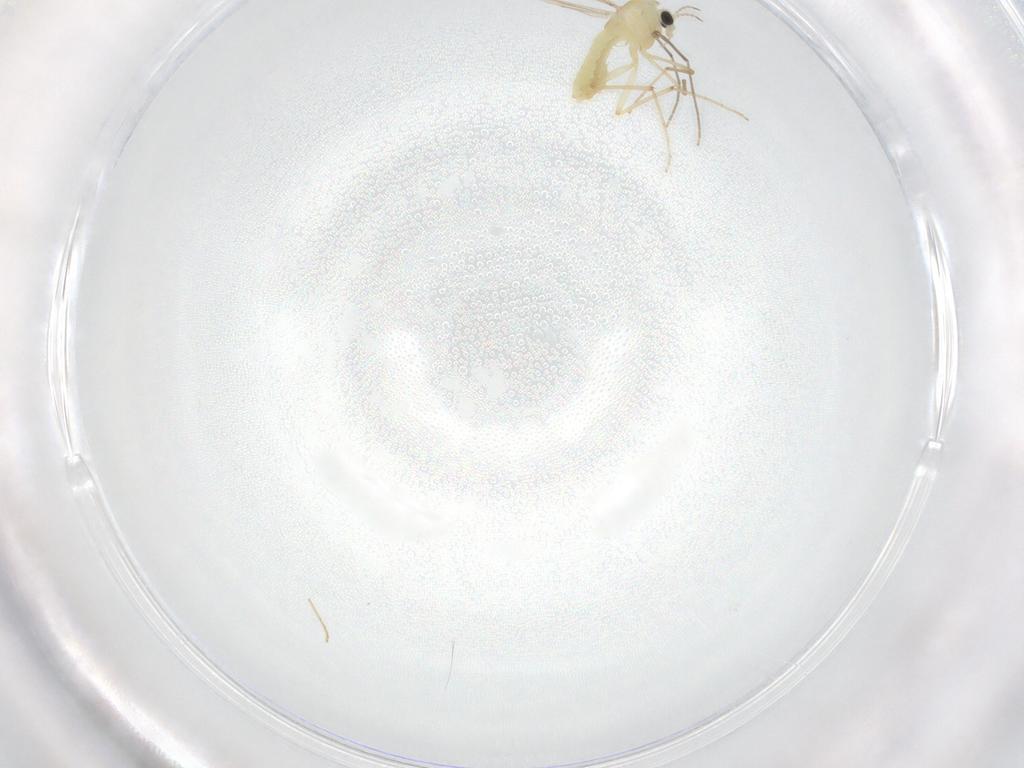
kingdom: Animalia
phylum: Arthropoda
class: Insecta
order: Diptera
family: Chironomidae
